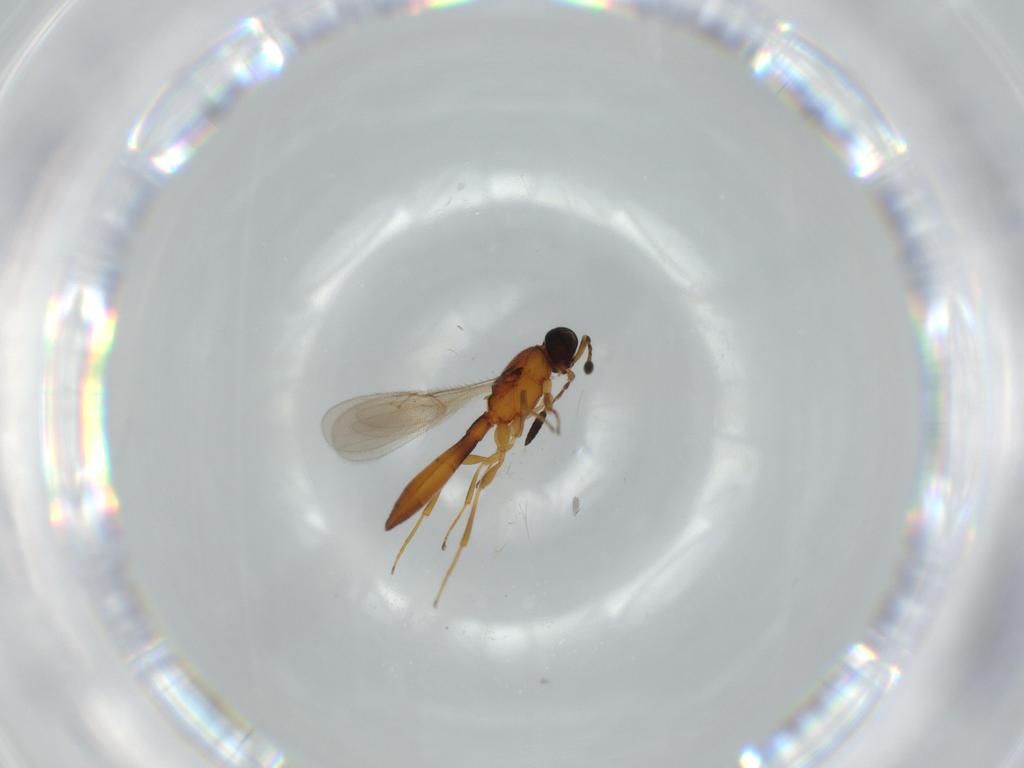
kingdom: Animalia
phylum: Arthropoda
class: Insecta
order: Hymenoptera
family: Scelionidae
